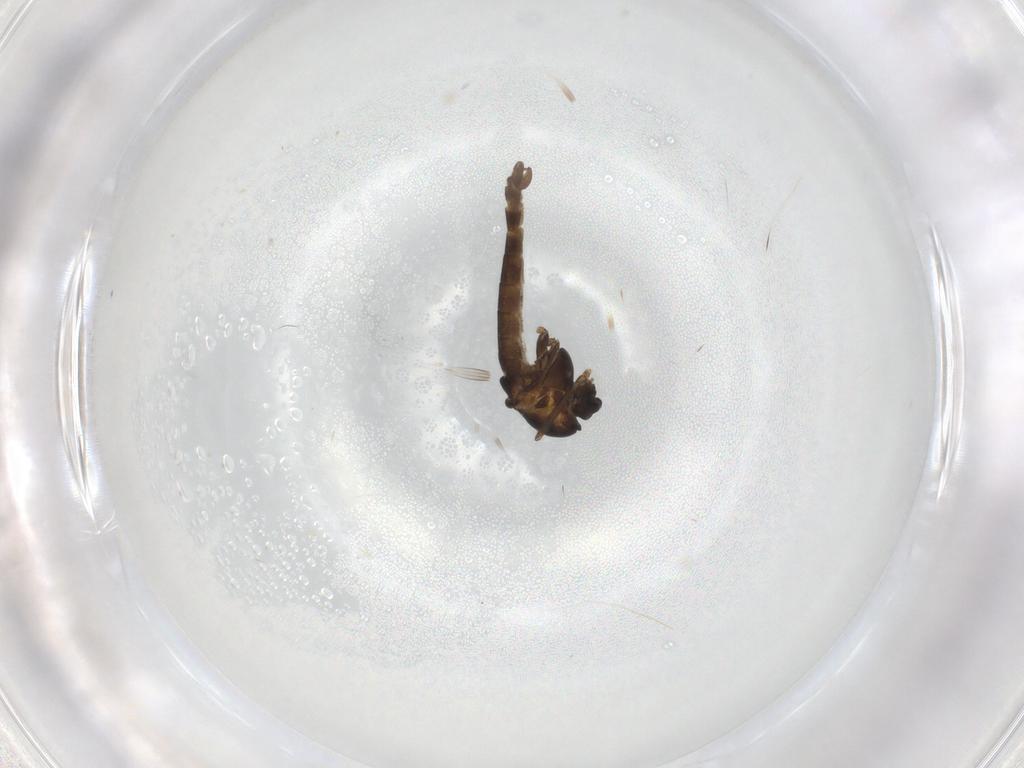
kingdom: Animalia
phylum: Arthropoda
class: Insecta
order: Diptera
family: Chironomidae
